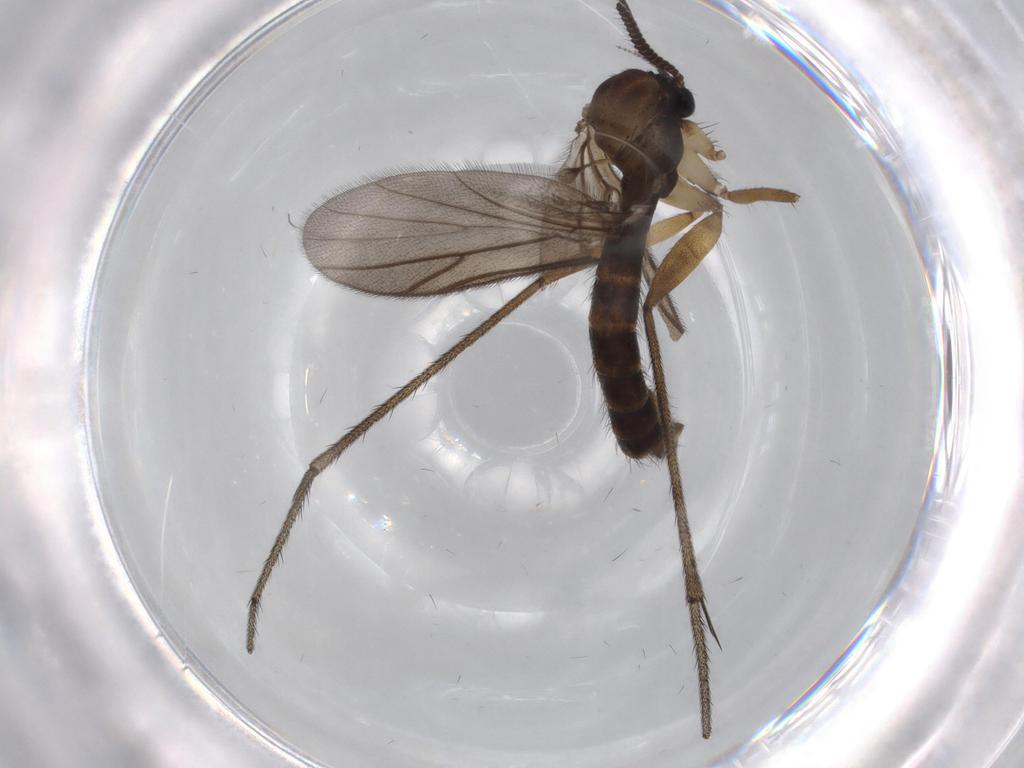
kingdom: Animalia
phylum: Arthropoda
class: Insecta
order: Diptera
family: Ditomyiidae
